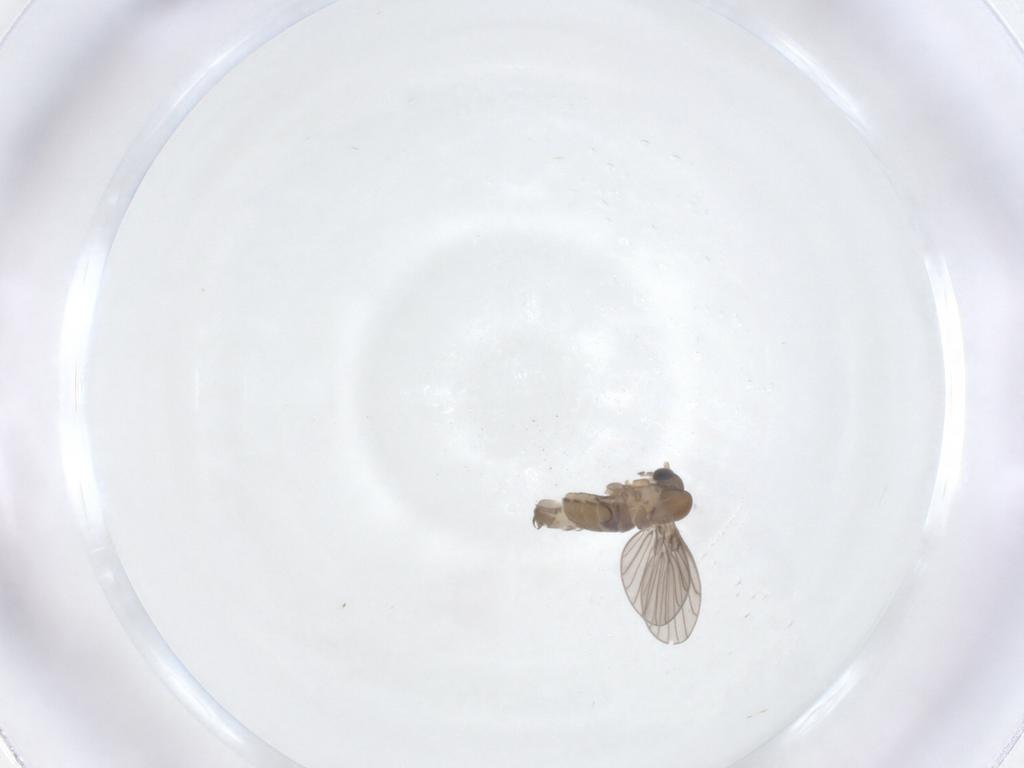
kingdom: Animalia
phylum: Arthropoda
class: Insecta
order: Diptera
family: Psychodidae
